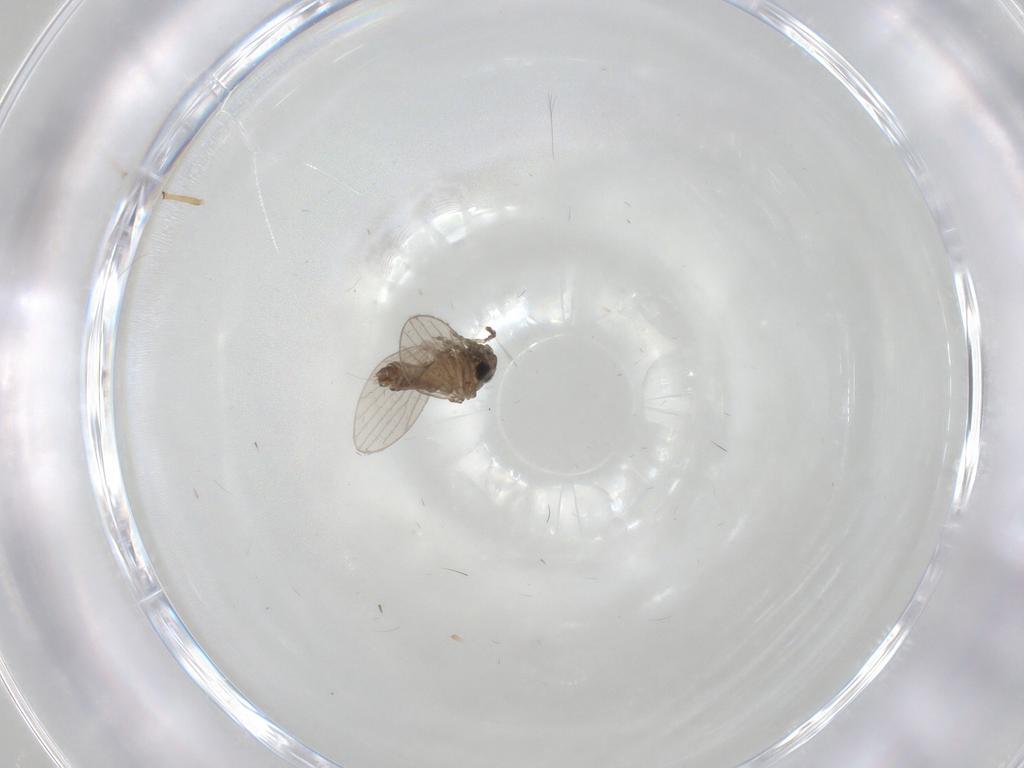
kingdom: Animalia
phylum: Arthropoda
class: Insecta
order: Diptera
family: Chironomidae
